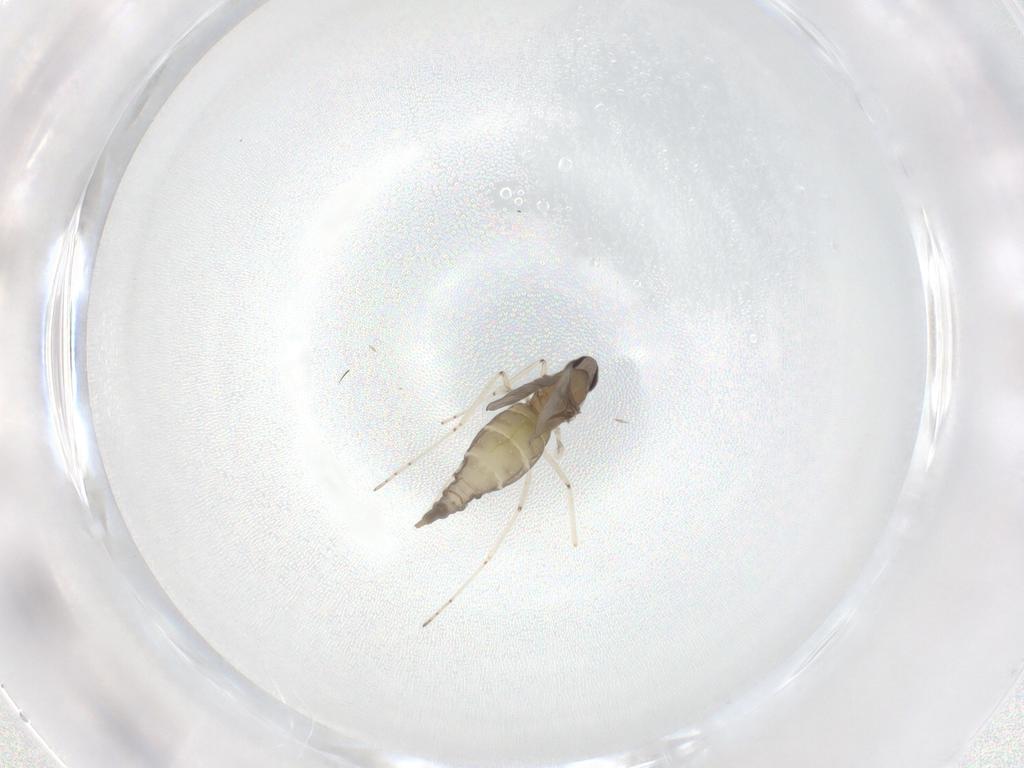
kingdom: Animalia
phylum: Arthropoda
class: Insecta
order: Diptera
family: Cecidomyiidae
